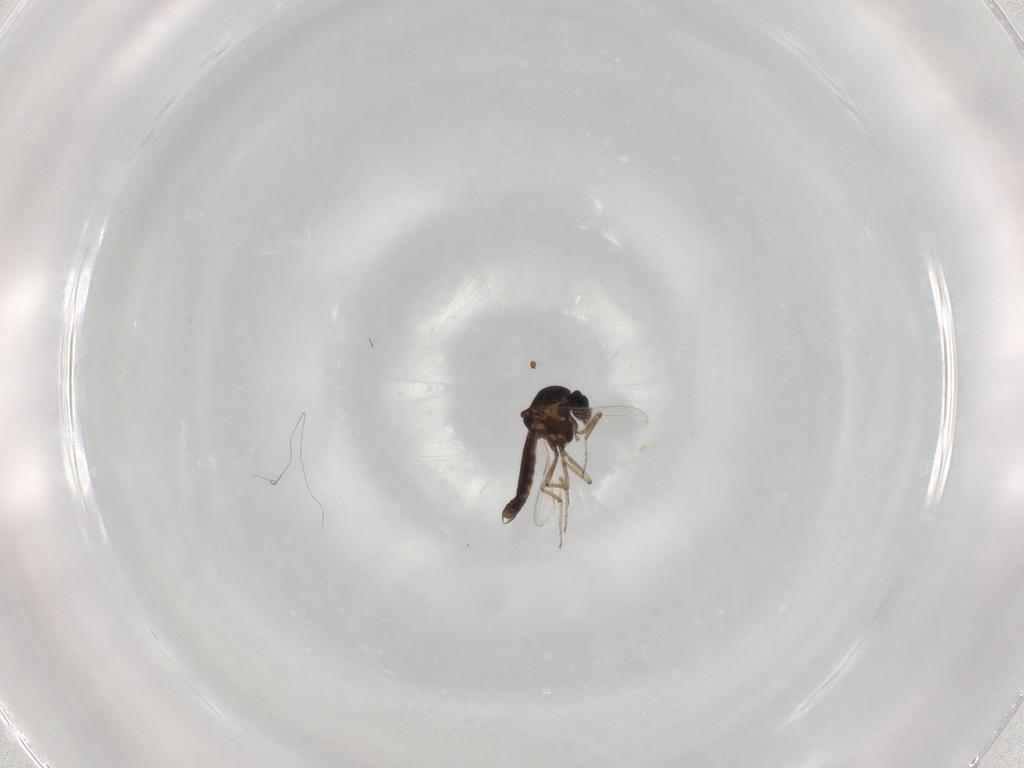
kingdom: Animalia
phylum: Arthropoda
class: Insecta
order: Diptera
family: Ceratopogonidae
